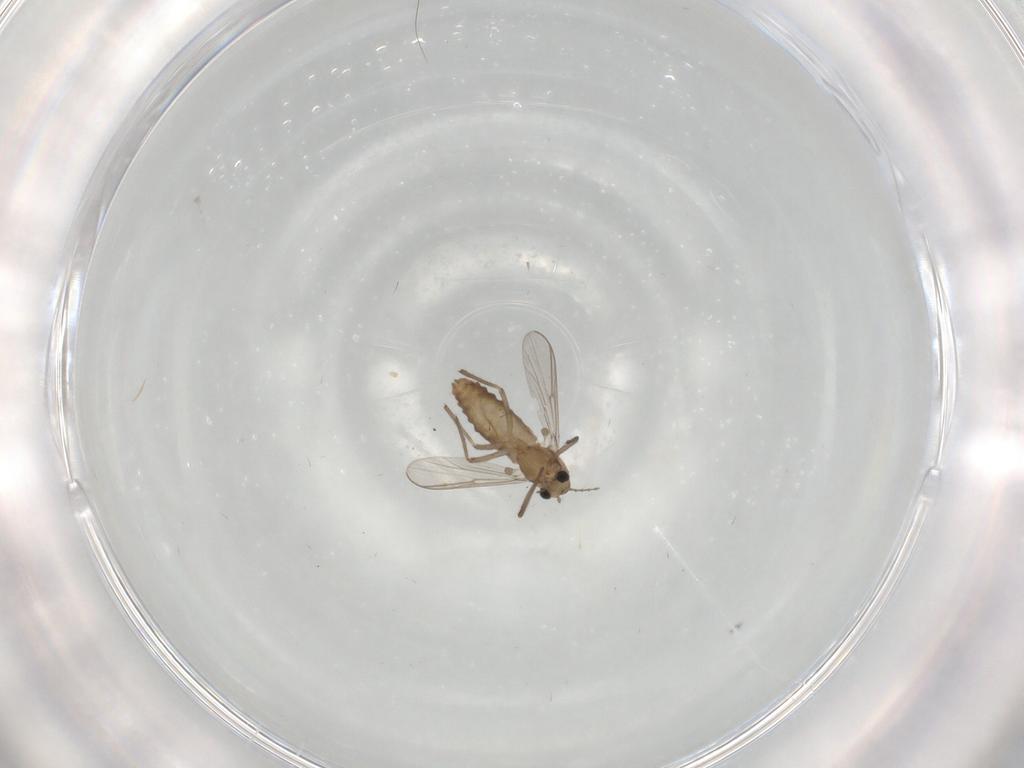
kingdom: Animalia
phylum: Arthropoda
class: Insecta
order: Diptera
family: Chironomidae
